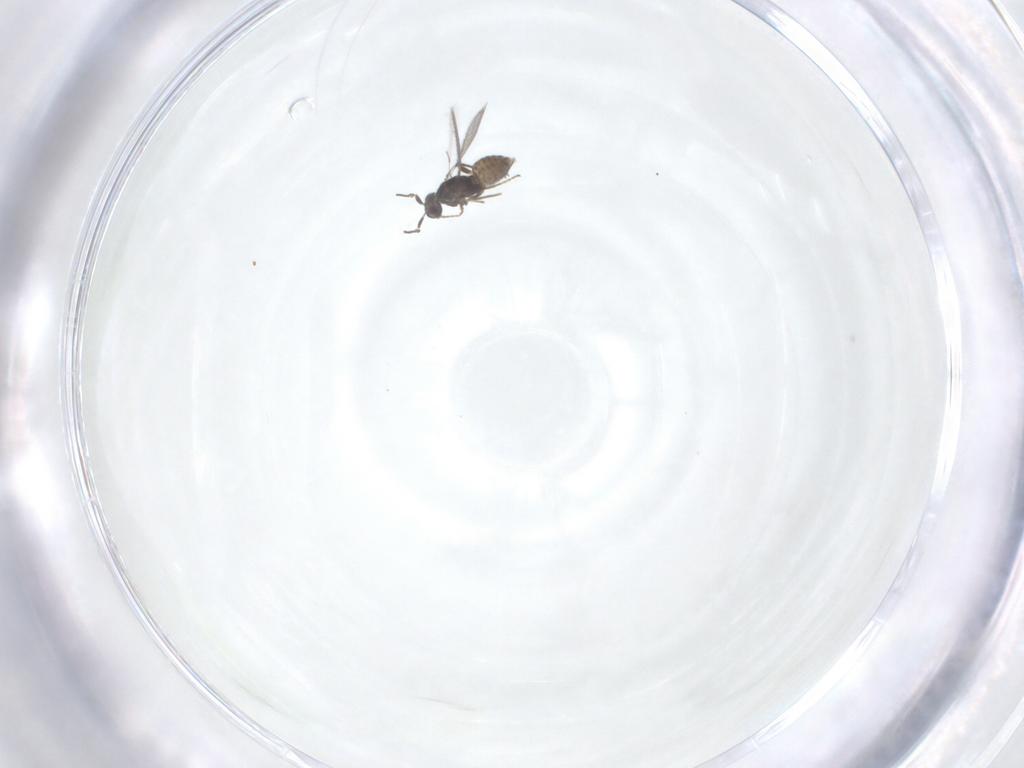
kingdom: Animalia
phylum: Arthropoda
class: Insecta
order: Hymenoptera
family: Mymaridae
